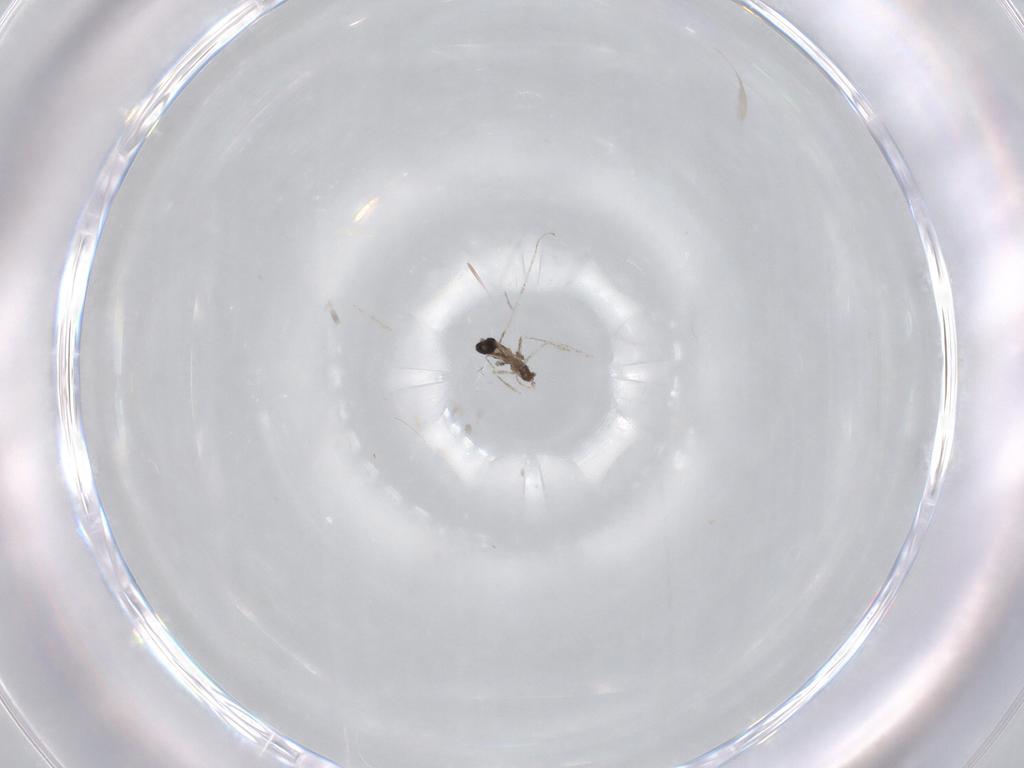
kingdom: Animalia
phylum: Arthropoda
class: Insecta
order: Diptera
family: Cecidomyiidae
